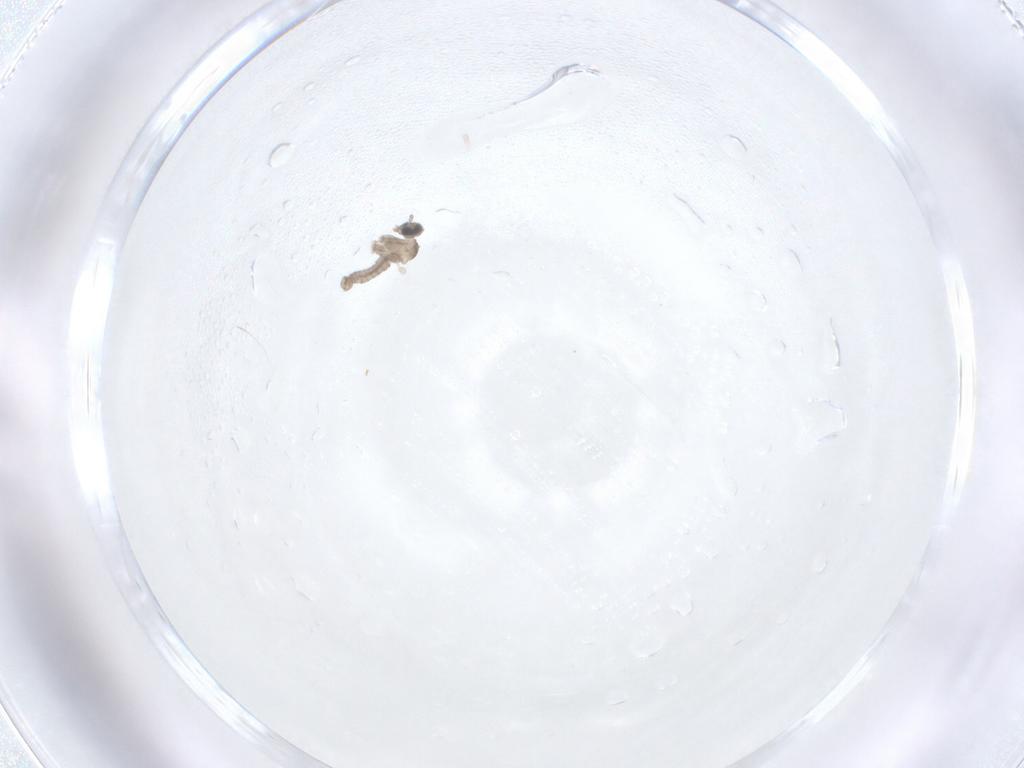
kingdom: Animalia
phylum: Arthropoda
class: Insecta
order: Diptera
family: Cecidomyiidae
